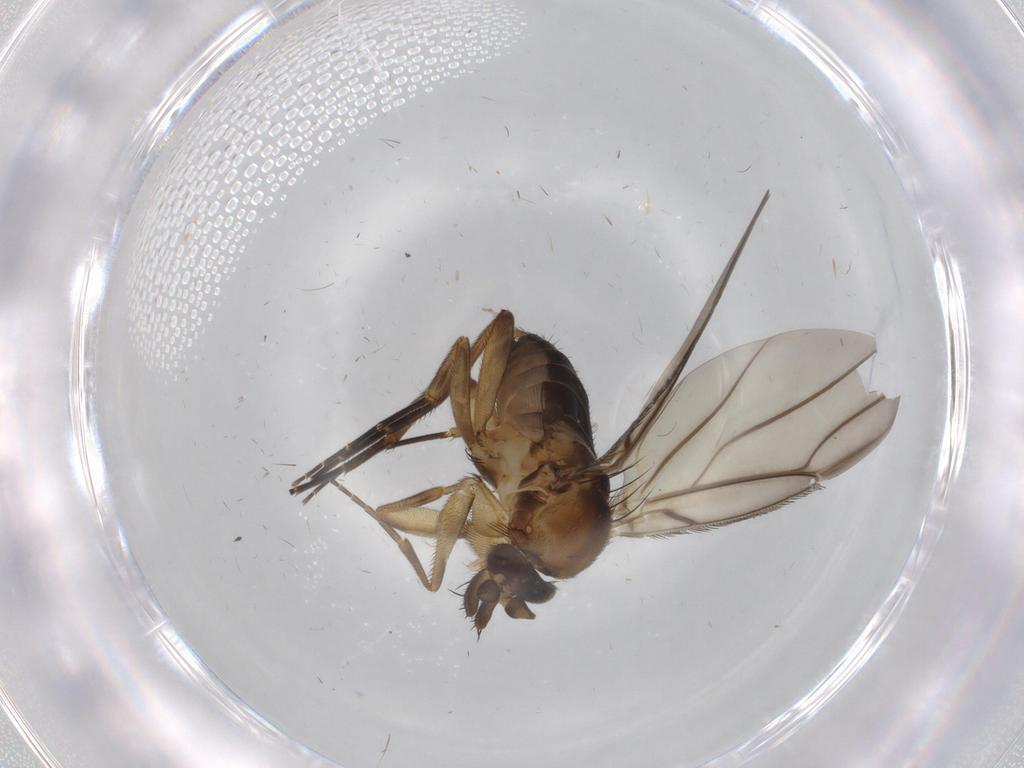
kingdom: Animalia
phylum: Arthropoda
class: Insecta
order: Diptera
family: Phoridae
